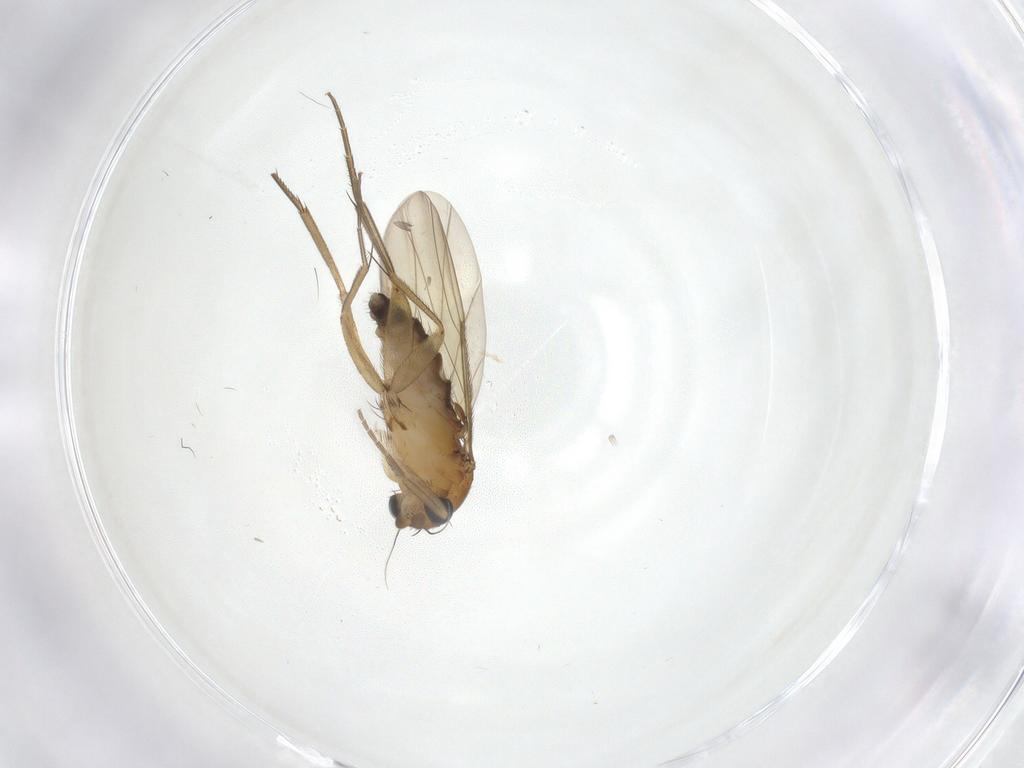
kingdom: Animalia
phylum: Arthropoda
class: Insecta
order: Diptera
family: Phoridae
